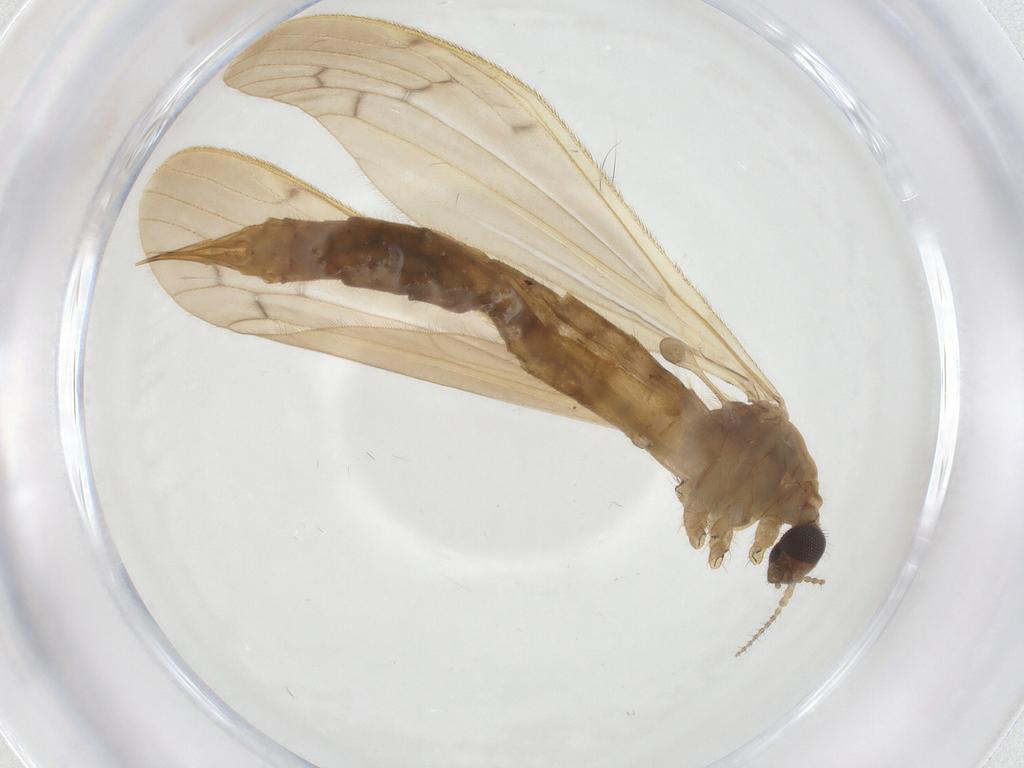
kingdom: Animalia
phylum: Arthropoda
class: Insecta
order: Diptera
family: Limoniidae
